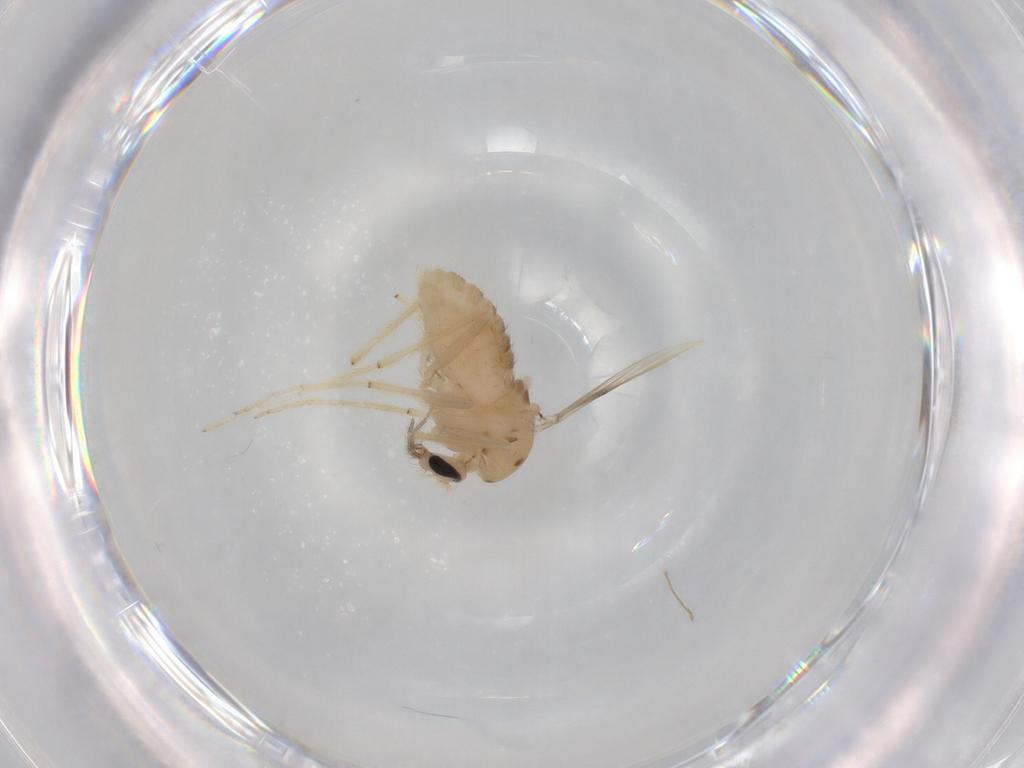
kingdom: Animalia
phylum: Arthropoda
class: Insecta
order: Diptera
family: Chironomidae
